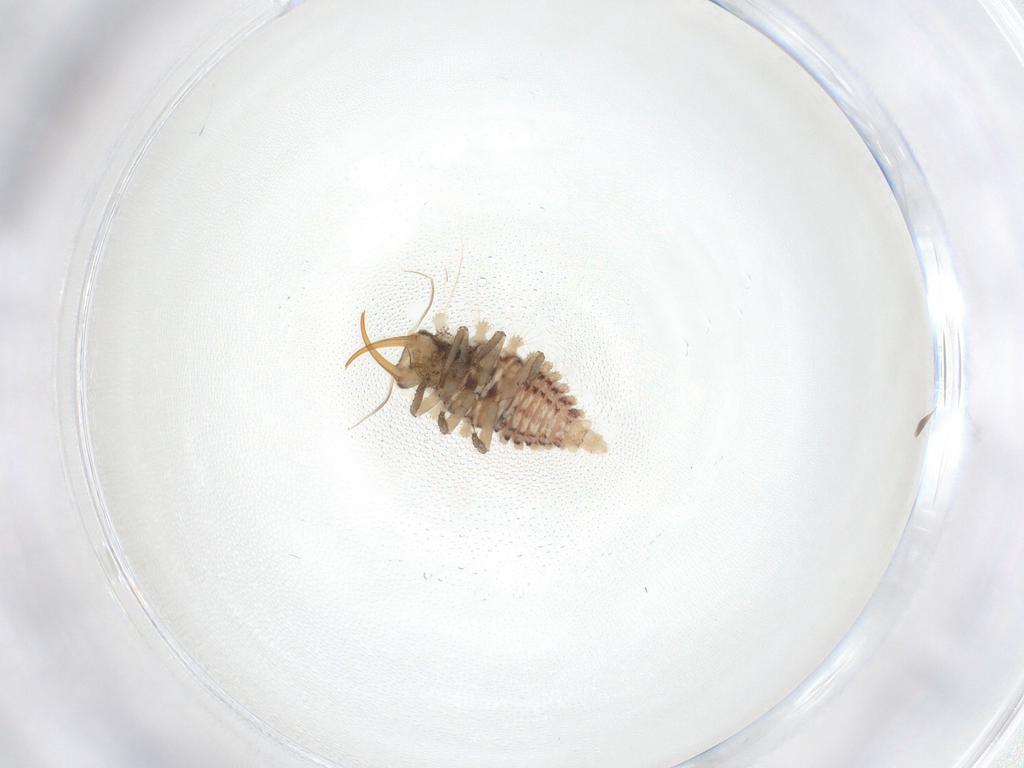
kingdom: Animalia
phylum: Arthropoda
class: Insecta
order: Neuroptera
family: Chrysopidae
